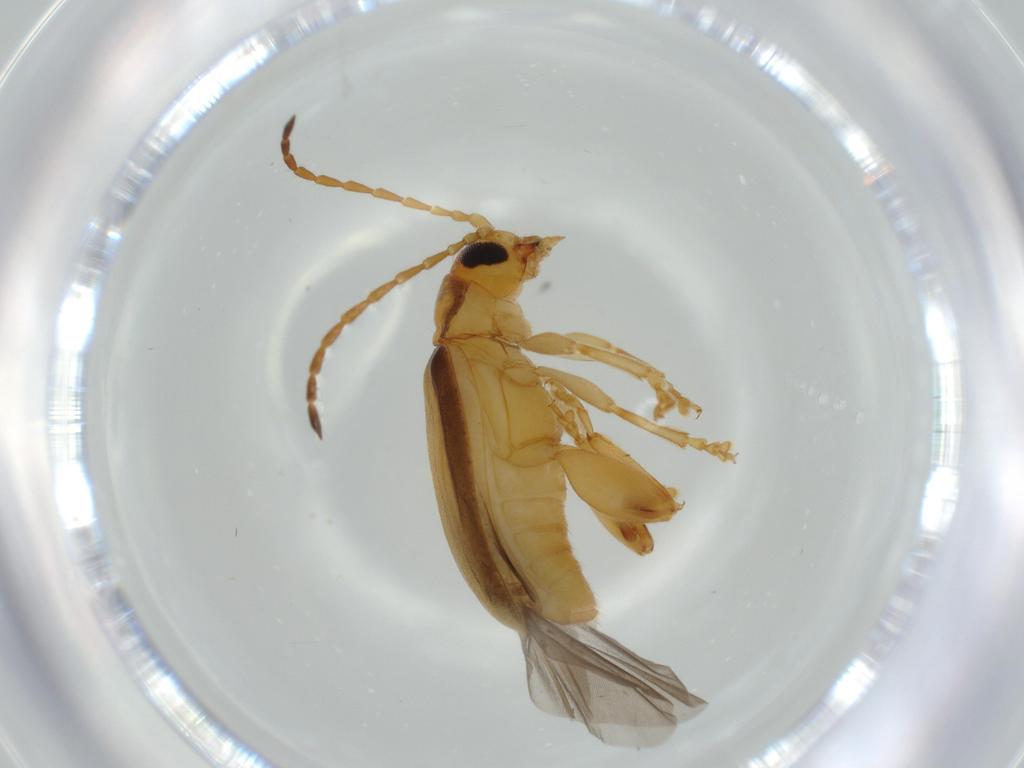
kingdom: Animalia
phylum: Arthropoda
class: Insecta
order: Coleoptera
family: Chrysomelidae
